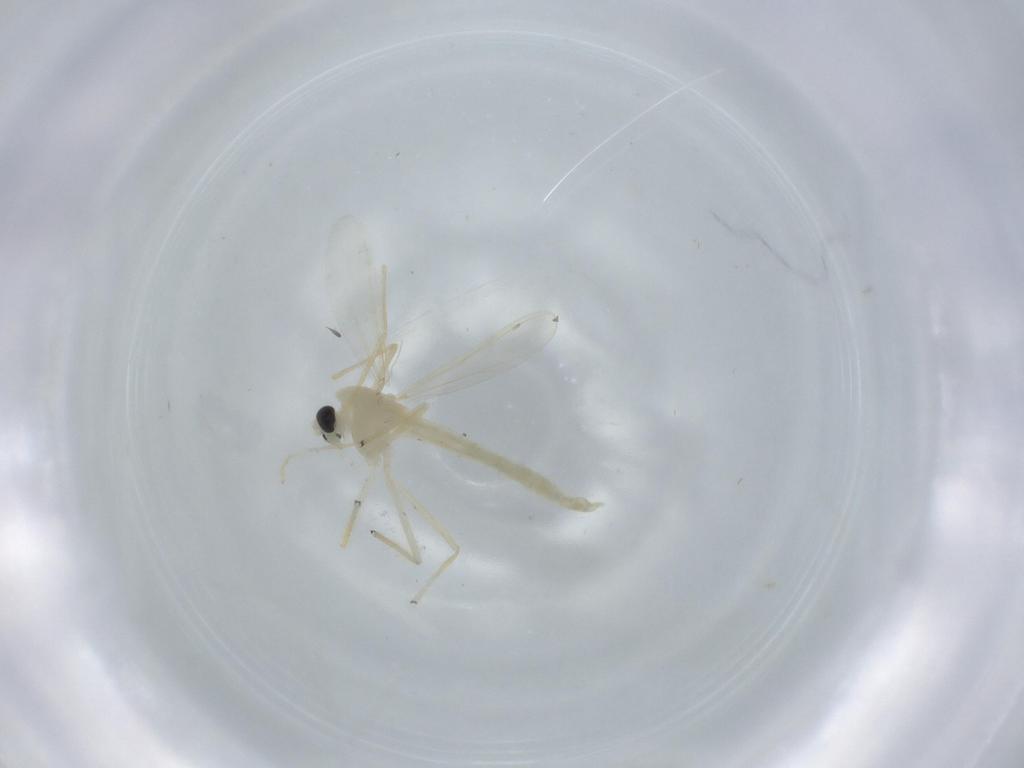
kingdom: Animalia
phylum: Arthropoda
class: Insecta
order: Diptera
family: Chironomidae
